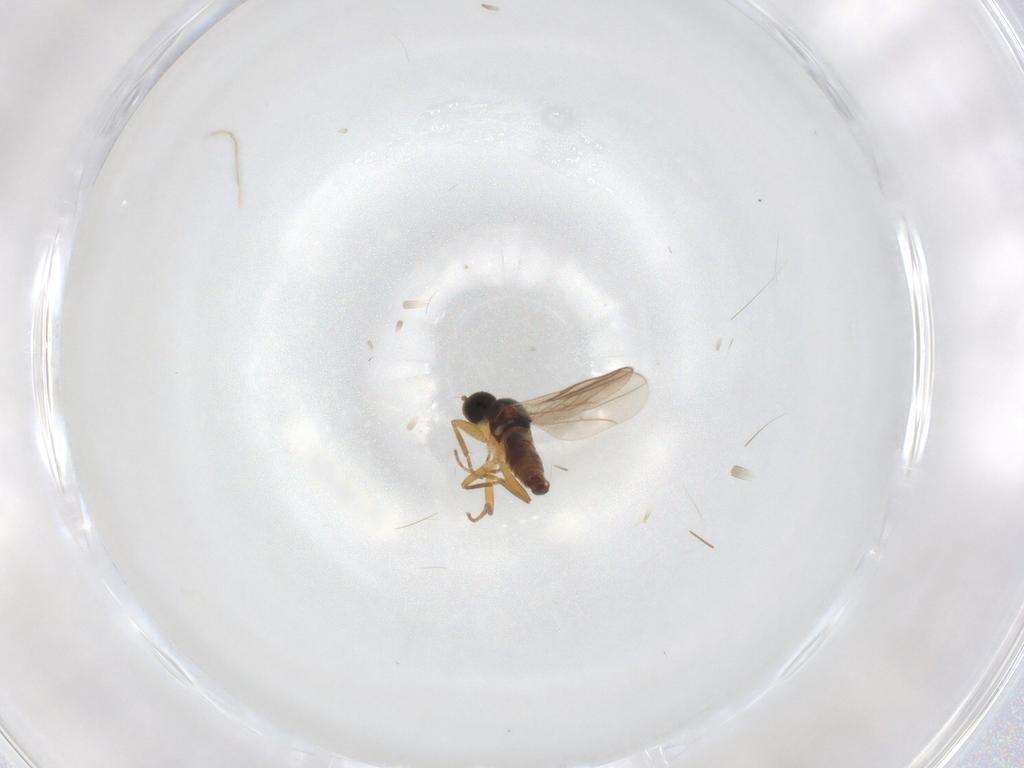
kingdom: Animalia
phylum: Arthropoda
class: Insecta
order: Diptera
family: Hybotidae
